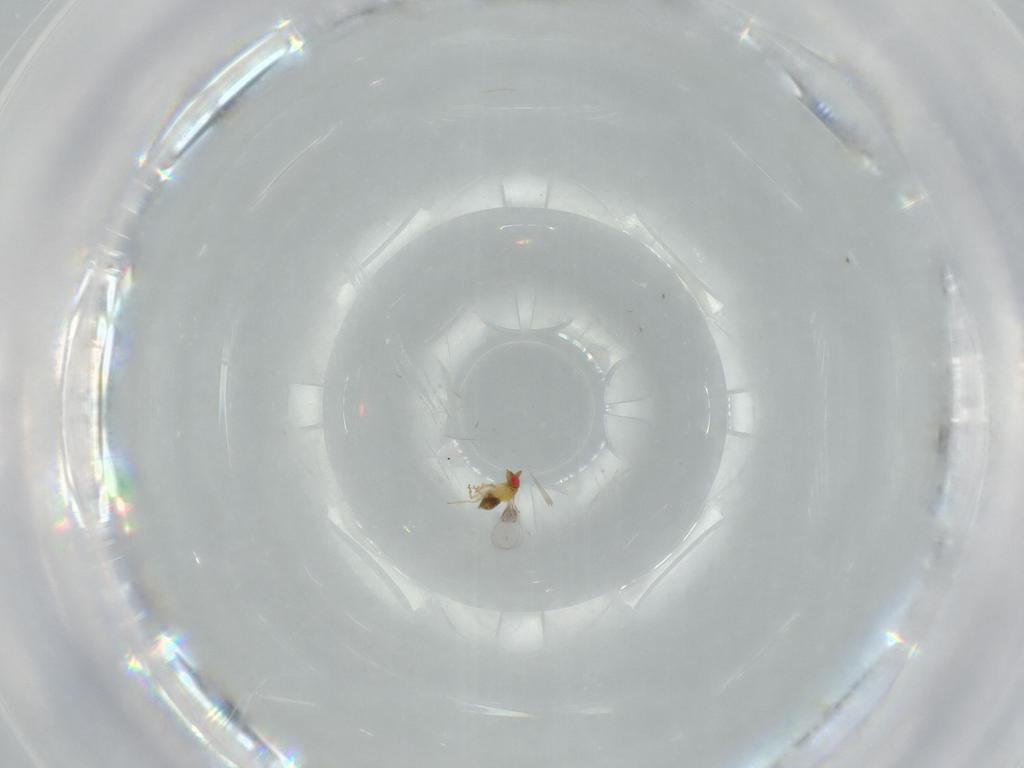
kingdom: Animalia
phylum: Arthropoda
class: Insecta
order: Hymenoptera
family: Trichogrammatidae
